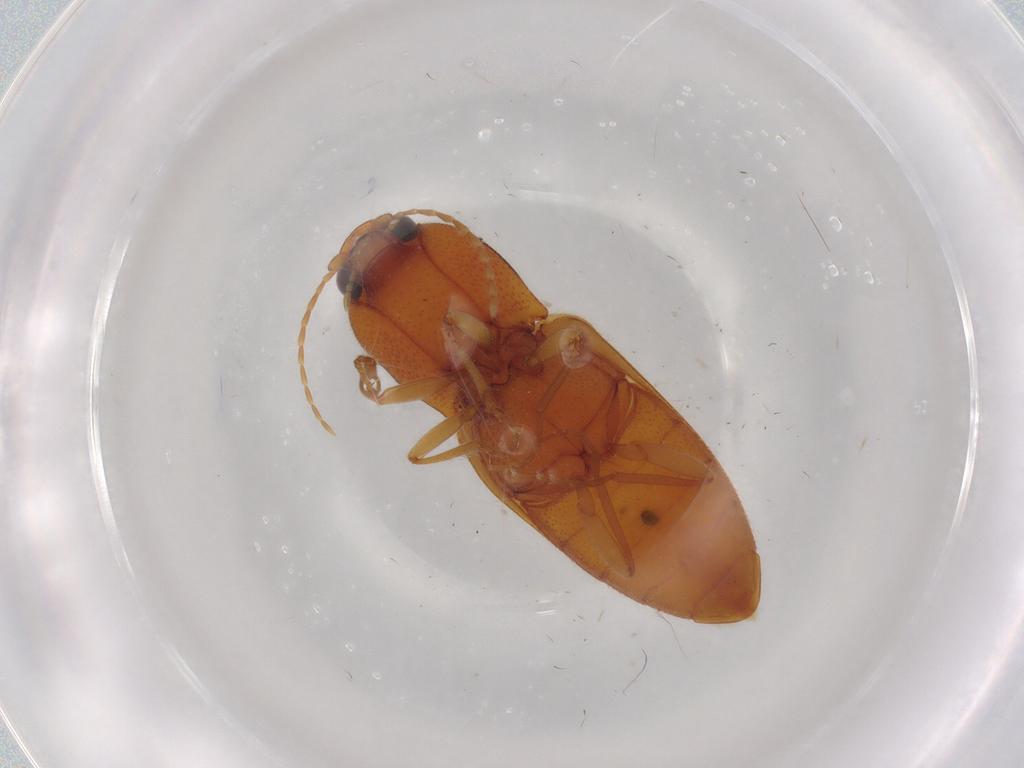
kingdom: Animalia
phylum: Arthropoda
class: Insecta
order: Coleoptera
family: Elateridae
